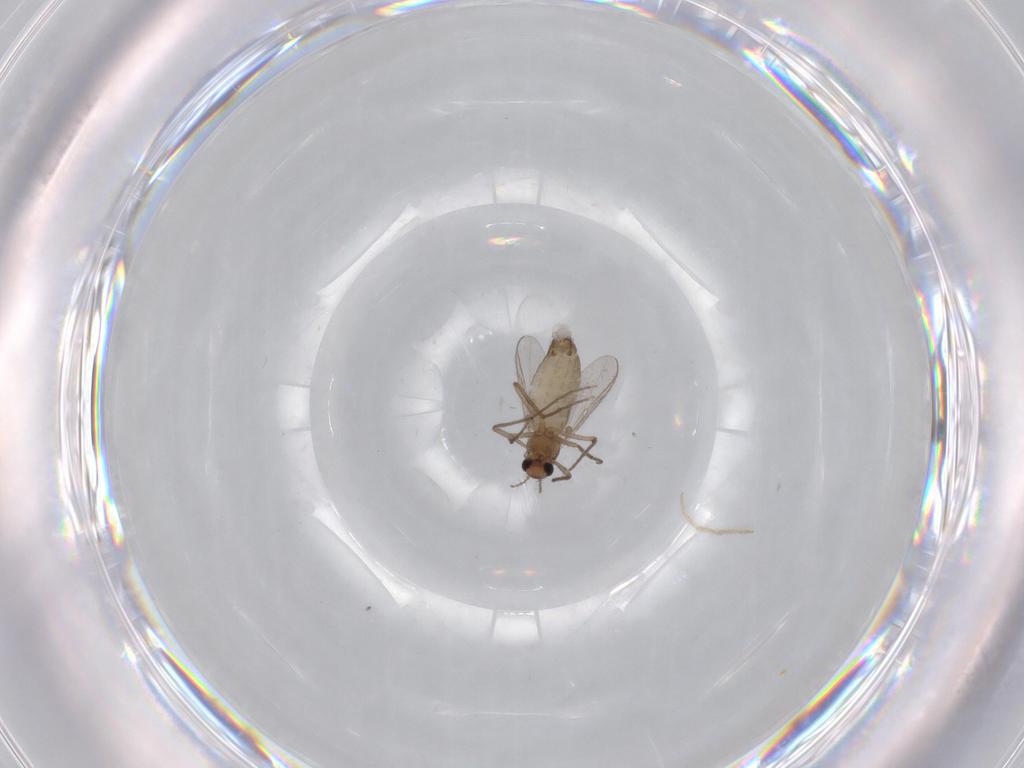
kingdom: Animalia
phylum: Arthropoda
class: Insecta
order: Diptera
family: Chironomidae
